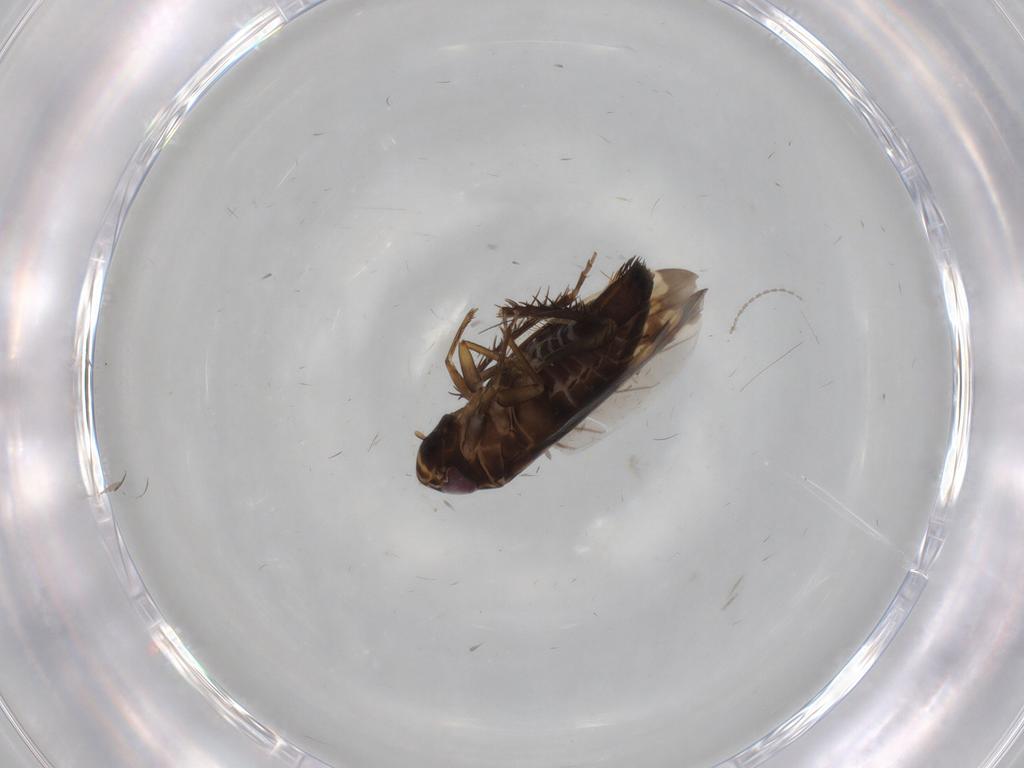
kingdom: Animalia
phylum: Arthropoda
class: Insecta
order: Hemiptera
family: Cicadellidae
